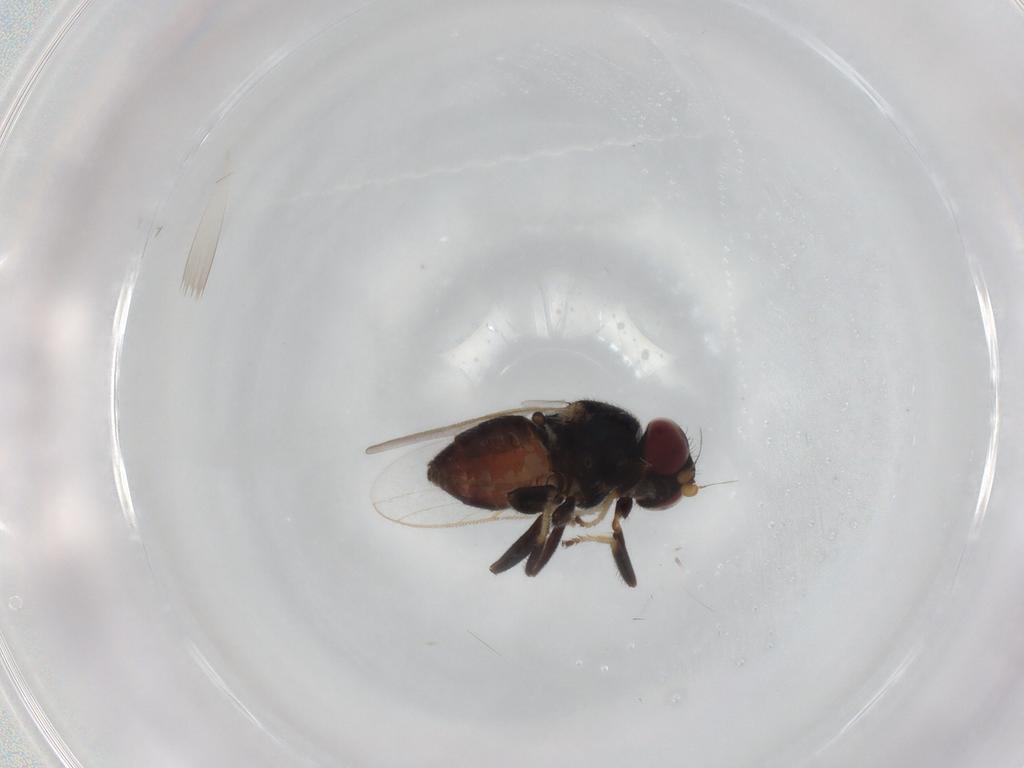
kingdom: Animalia
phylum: Arthropoda
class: Insecta
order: Diptera
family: Chloropidae
